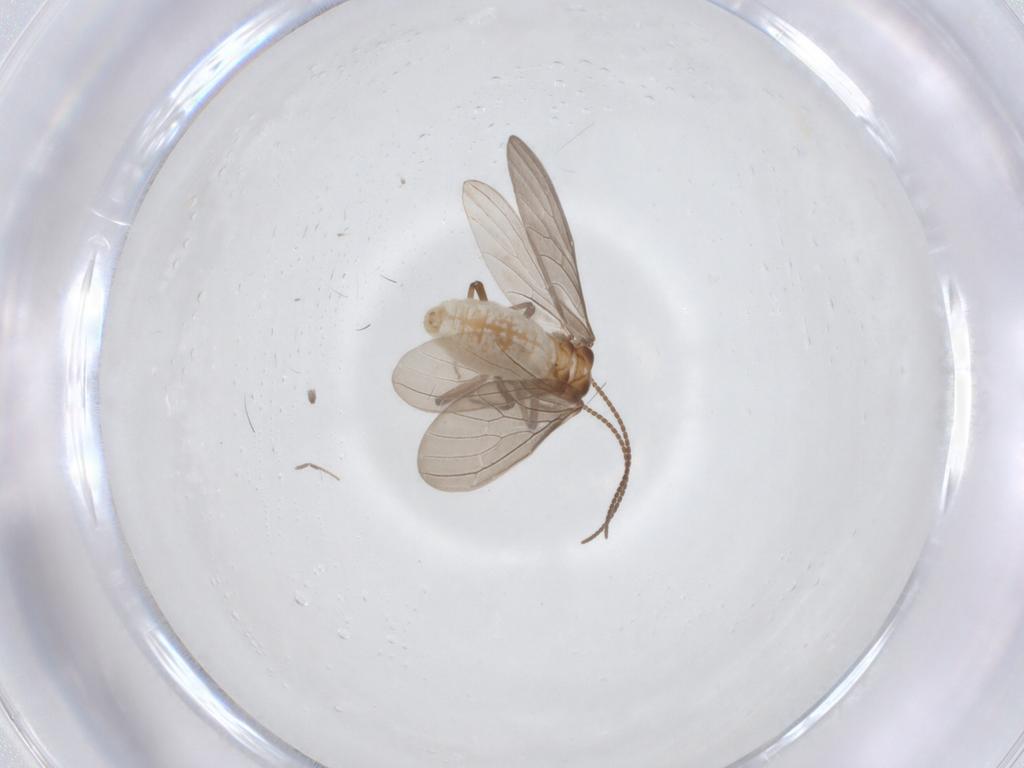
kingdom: Animalia
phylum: Arthropoda
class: Insecta
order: Neuroptera
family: Coniopterygidae
